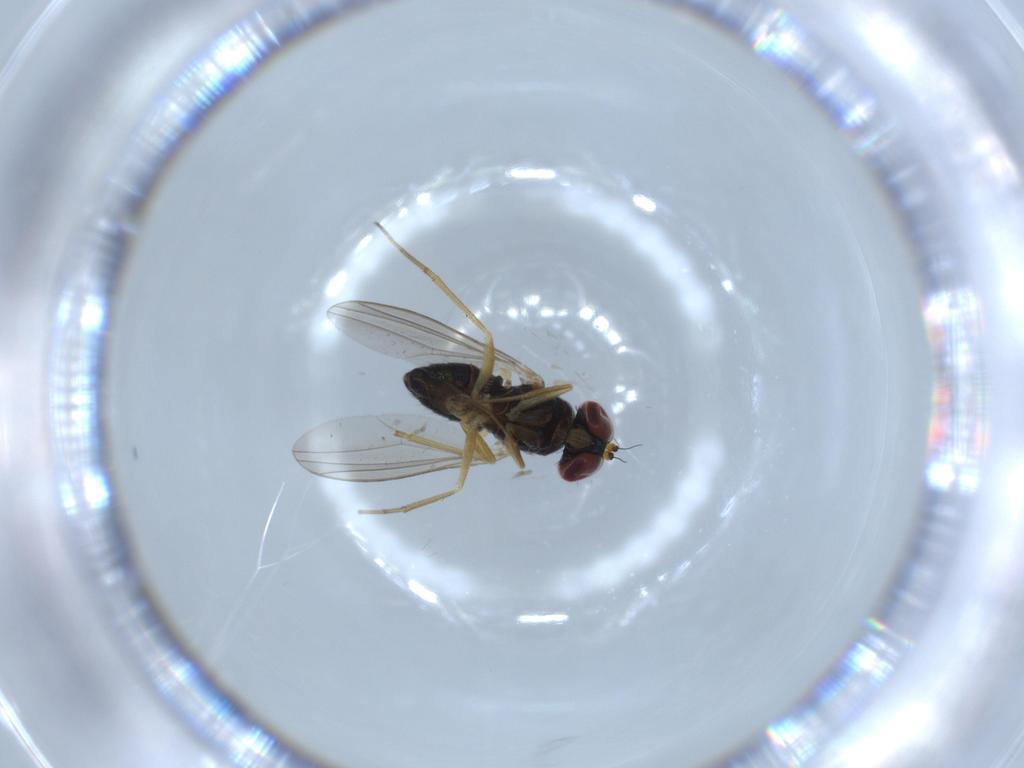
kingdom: Animalia
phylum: Arthropoda
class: Insecta
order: Diptera
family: Dolichopodidae
